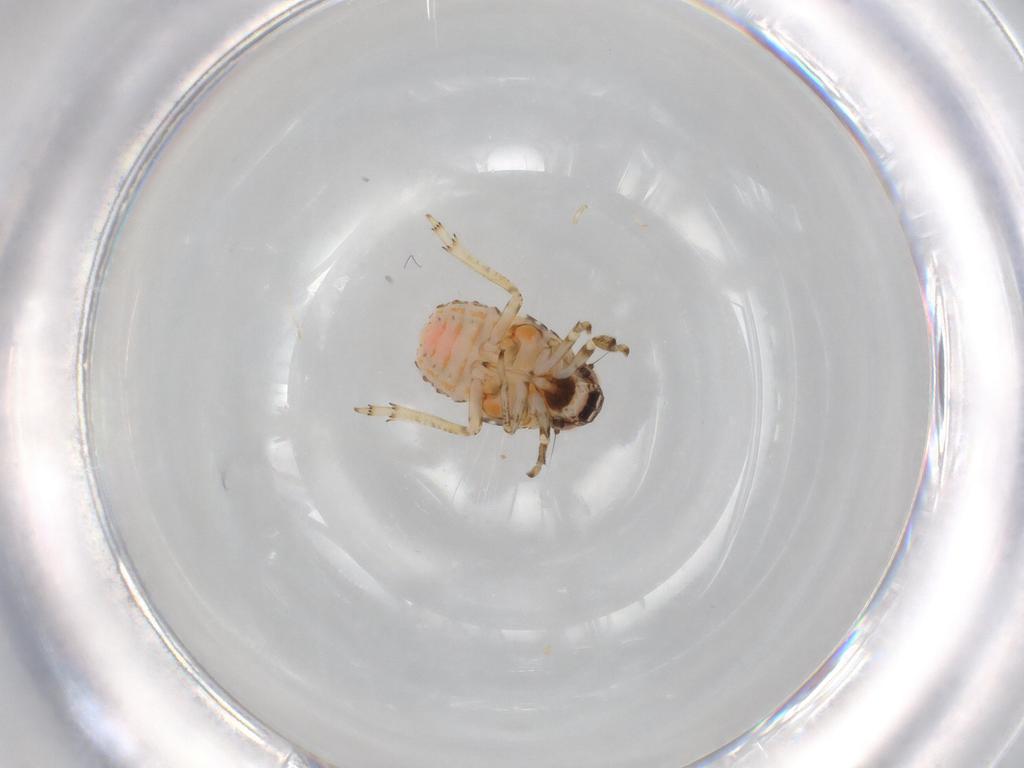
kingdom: Animalia
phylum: Arthropoda
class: Insecta
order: Hemiptera
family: Issidae
